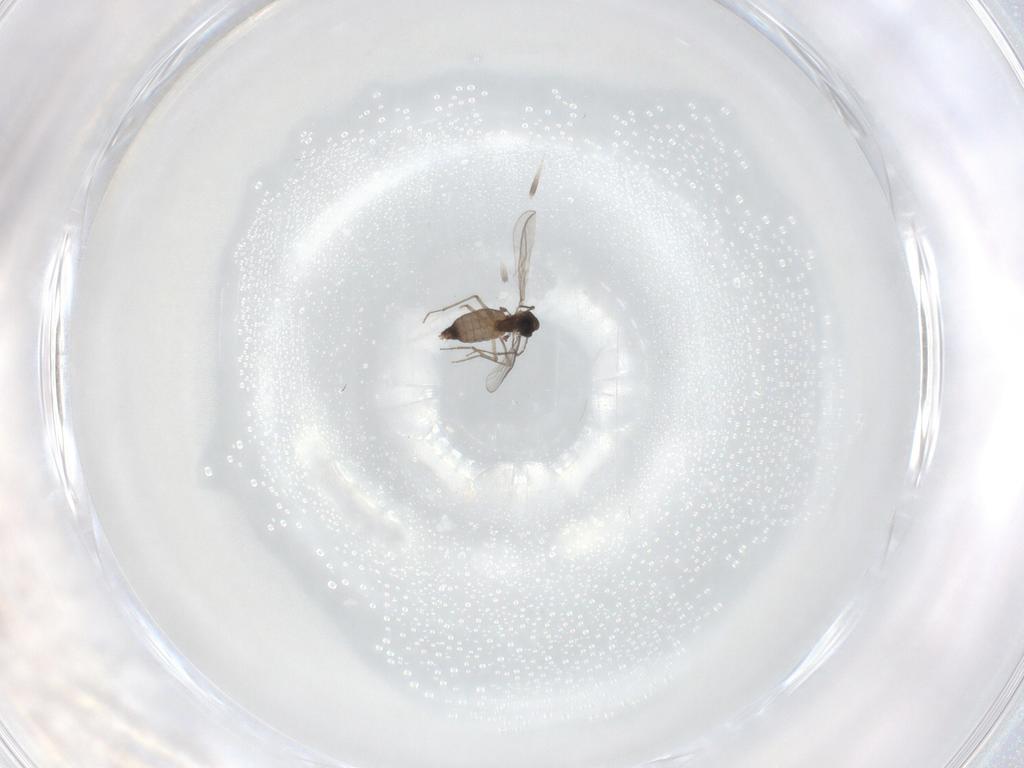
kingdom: Animalia
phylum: Arthropoda
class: Insecta
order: Diptera
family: Chironomidae
